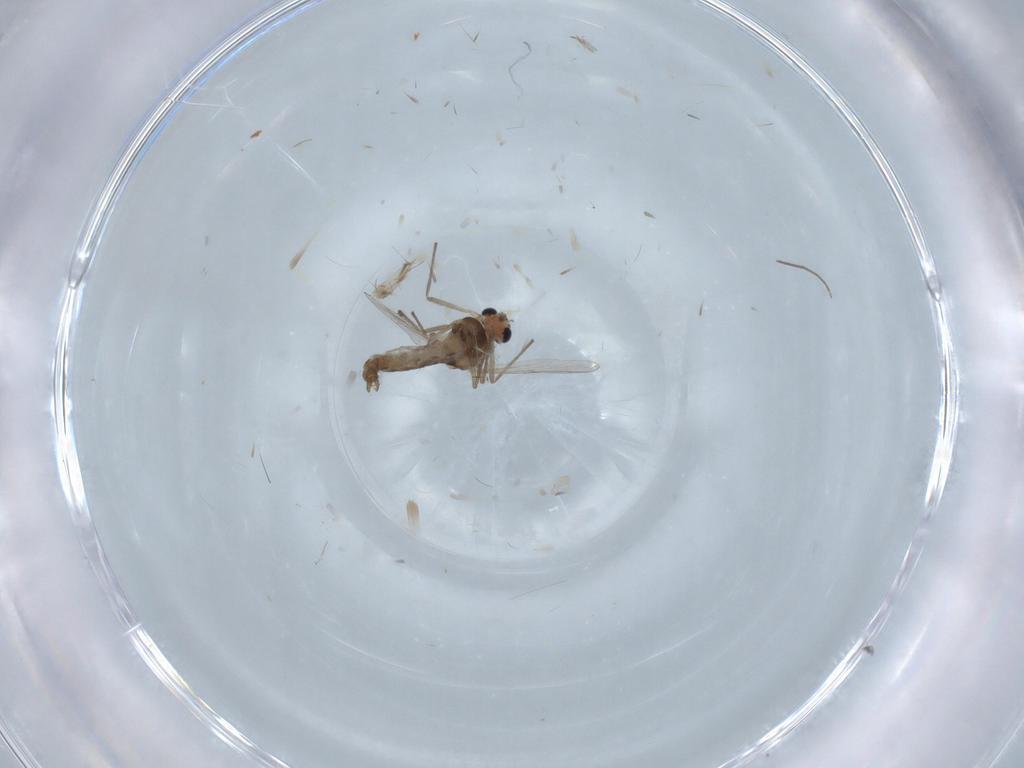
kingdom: Animalia
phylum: Arthropoda
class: Insecta
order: Diptera
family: Chironomidae
